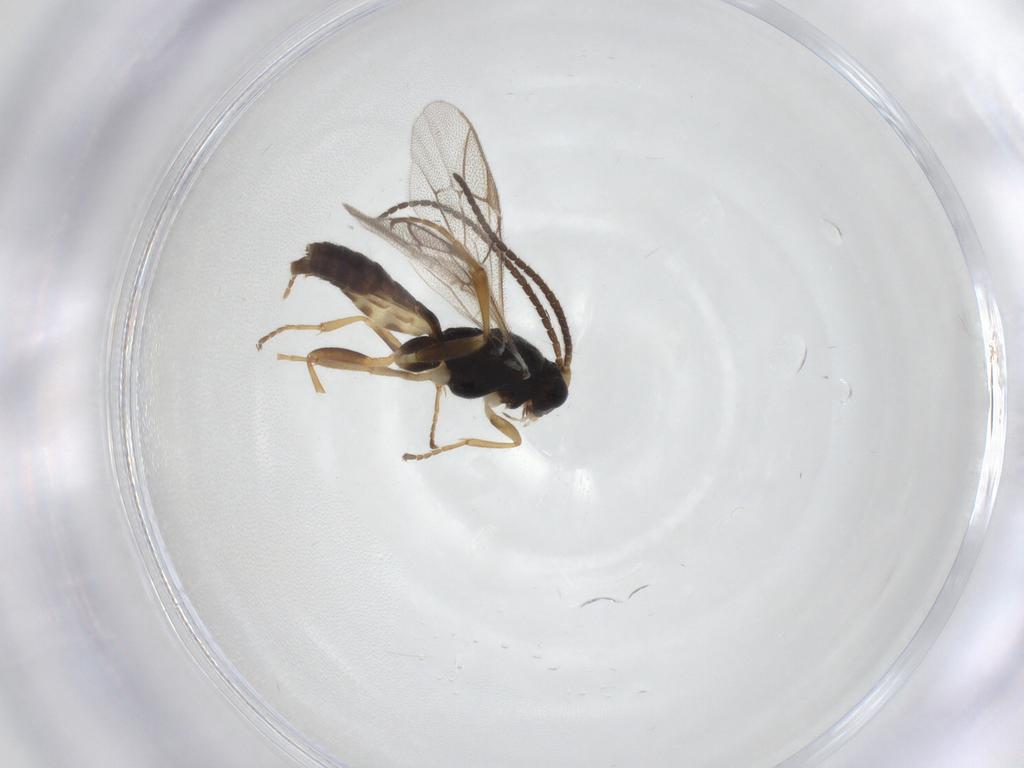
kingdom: Animalia
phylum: Arthropoda
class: Insecta
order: Hymenoptera
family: Ichneumonidae
